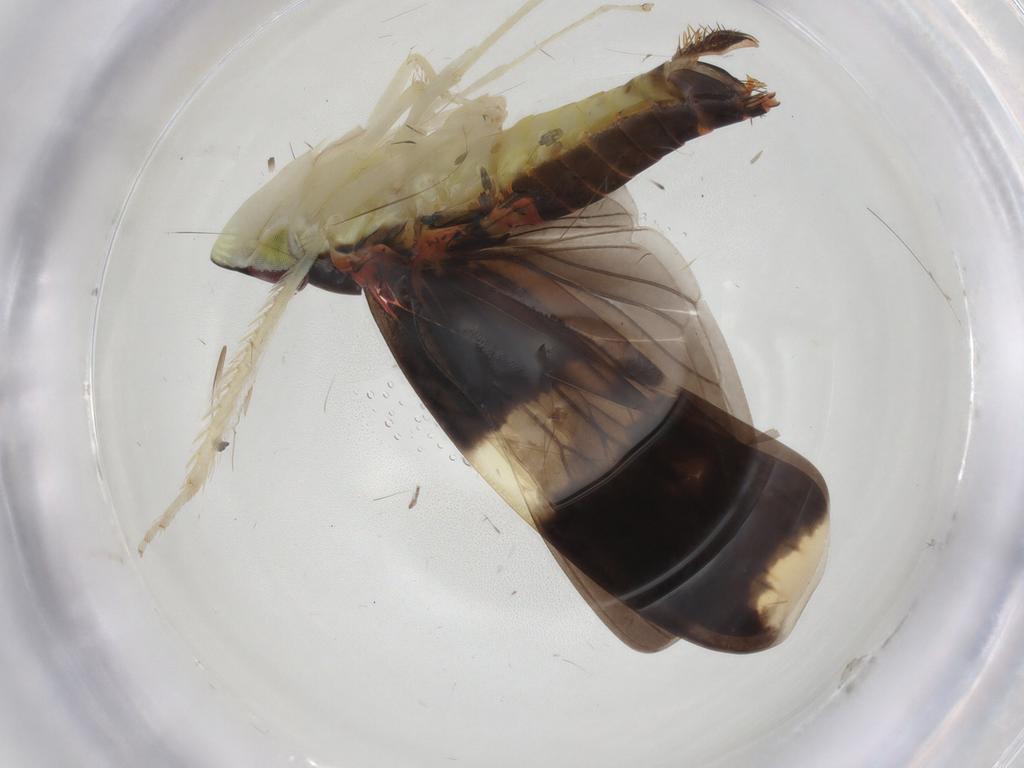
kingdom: Animalia
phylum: Arthropoda
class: Insecta
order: Hemiptera
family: Cicadellidae
